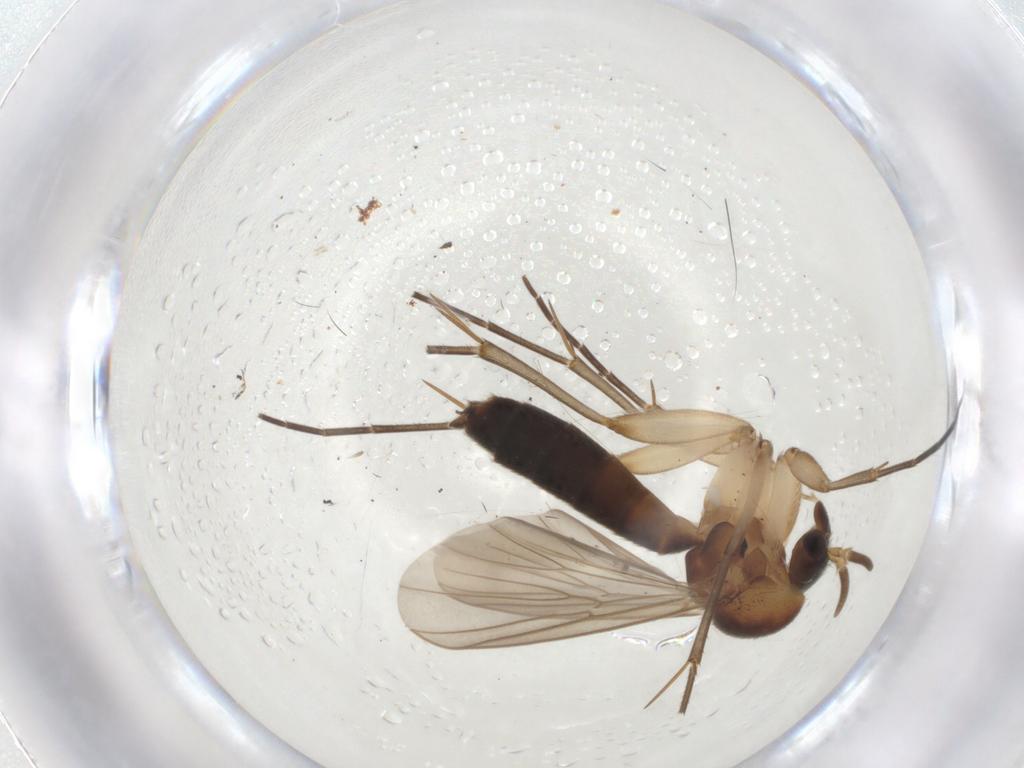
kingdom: Animalia
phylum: Arthropoda
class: Insecta
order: Diptera
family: Mycetophilidae
